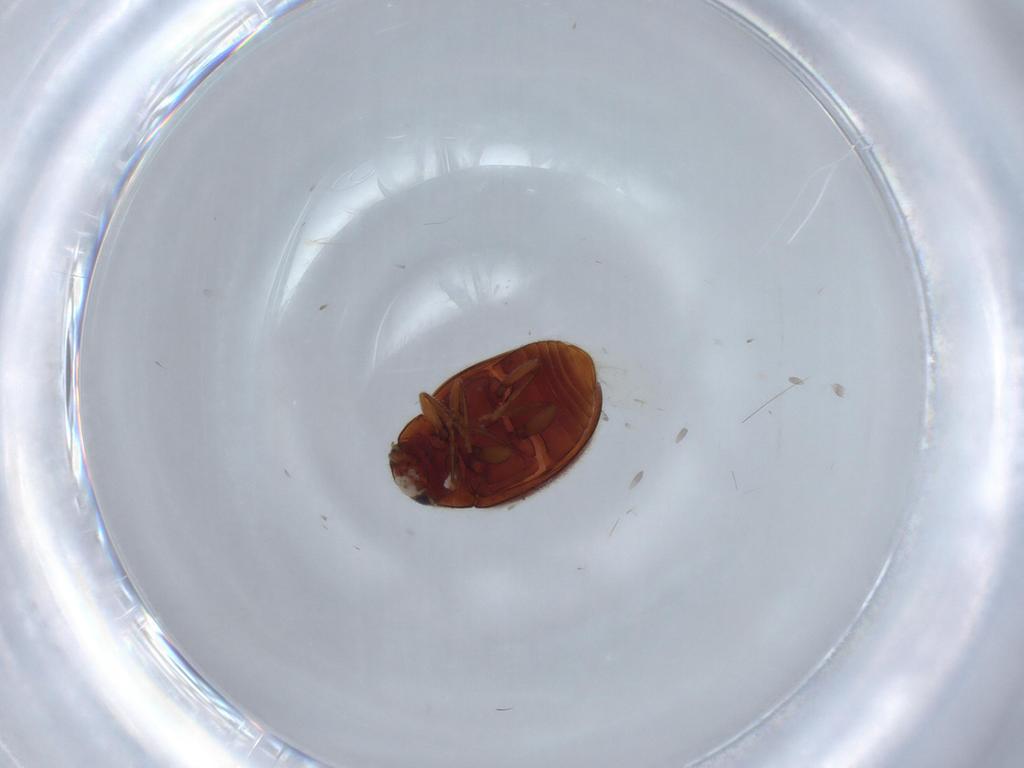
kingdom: Animalia
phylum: Arthropoda
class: Insecta
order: Coleoptera
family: Coccinellidae
